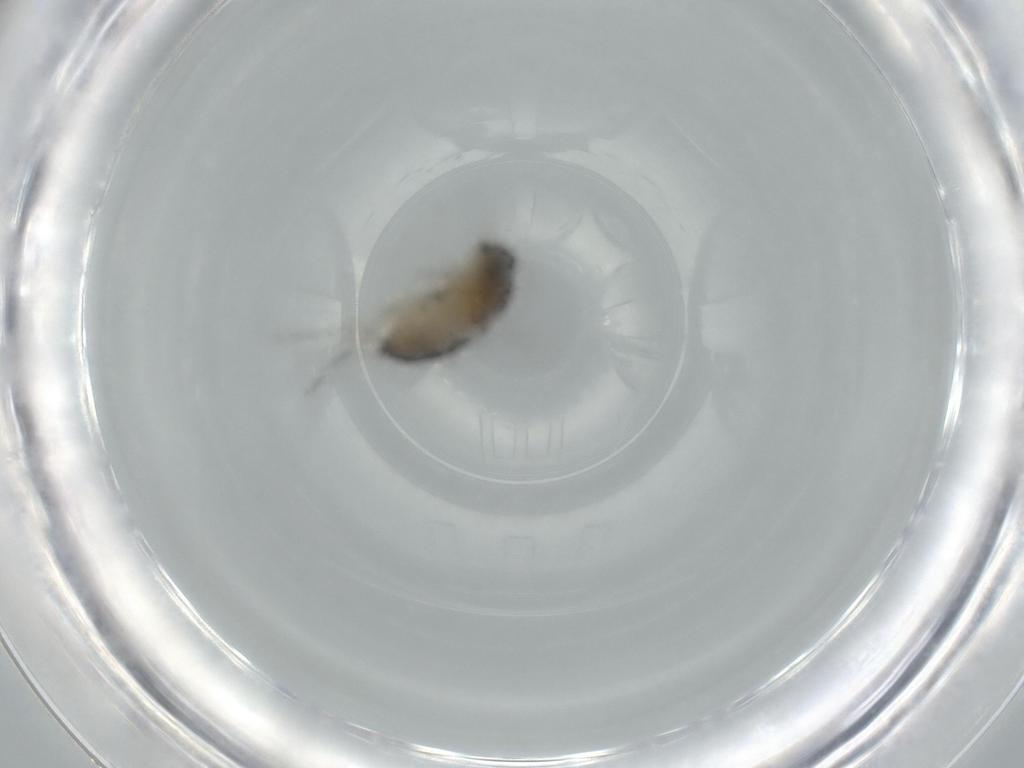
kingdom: Animalia
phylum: Arthropoda
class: Insecta
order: Diptera
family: Phoridae
